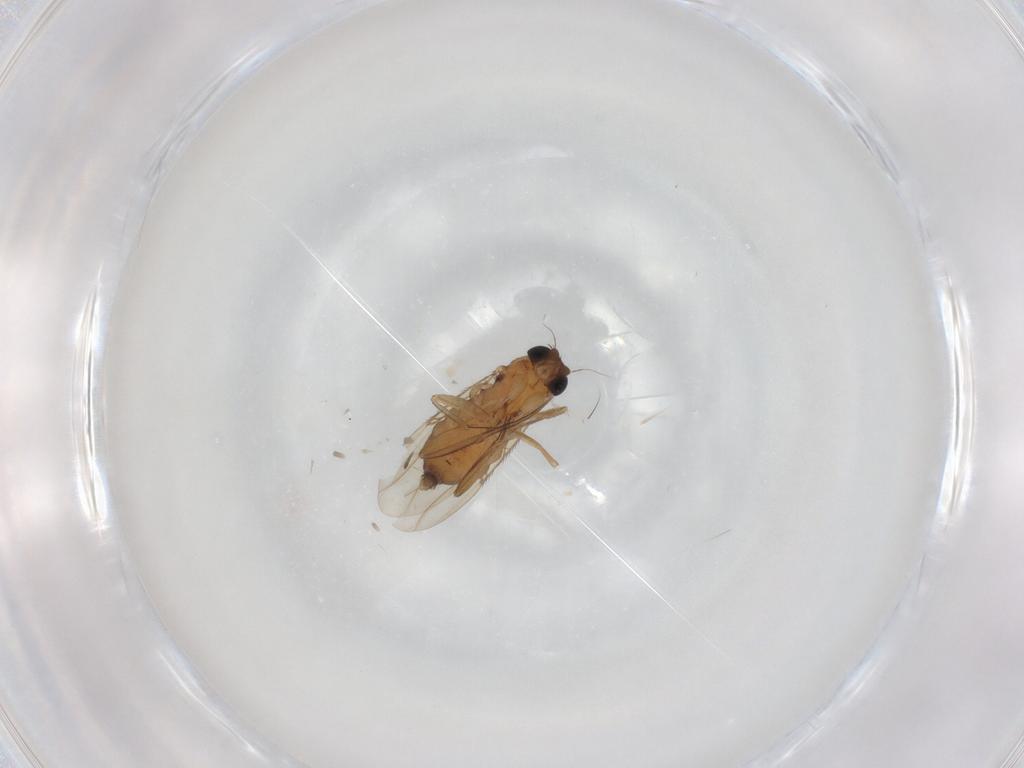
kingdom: Animalia
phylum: Arthropoda
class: Insecta
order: Diptera
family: Phoridae
